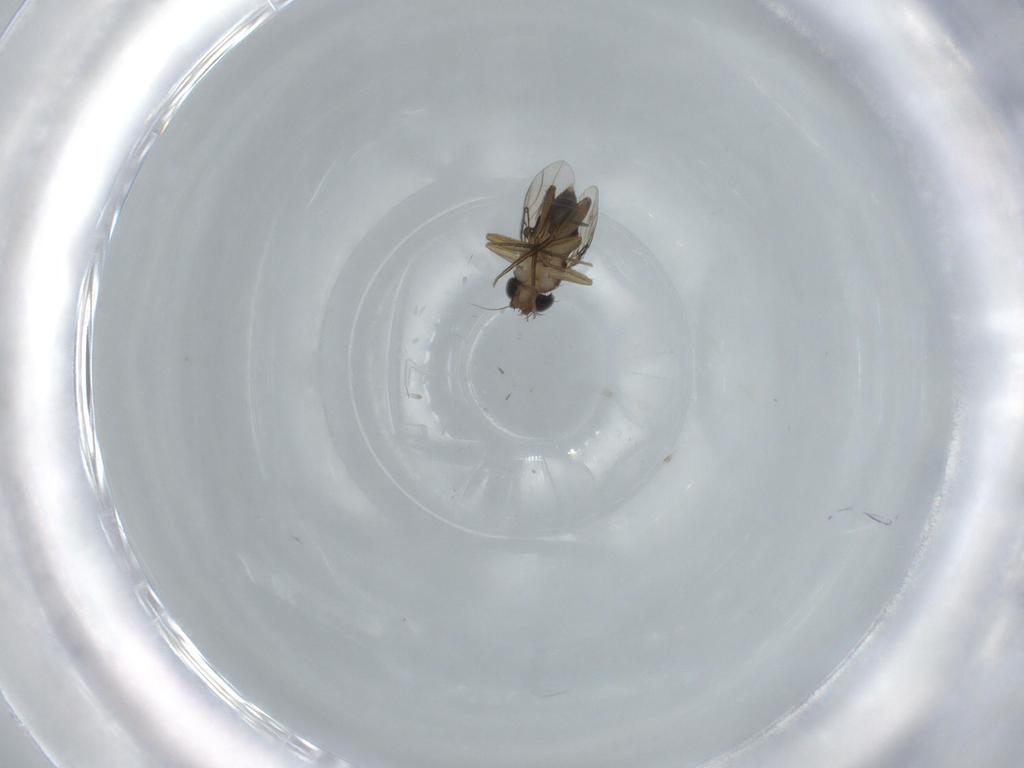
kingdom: Animalia
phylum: Arthropoda
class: Insecta
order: Diptera
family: Phoridae
